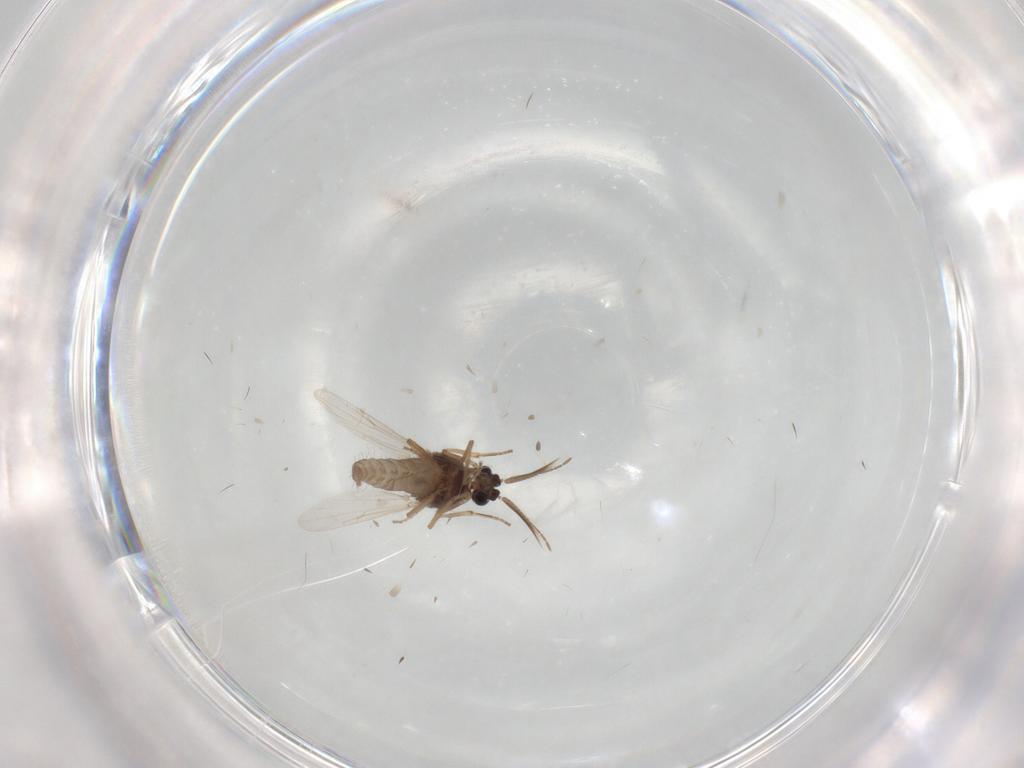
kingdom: Animalia
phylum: Arthropoda
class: Insecta
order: Diptera
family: Ceratopogonidae
